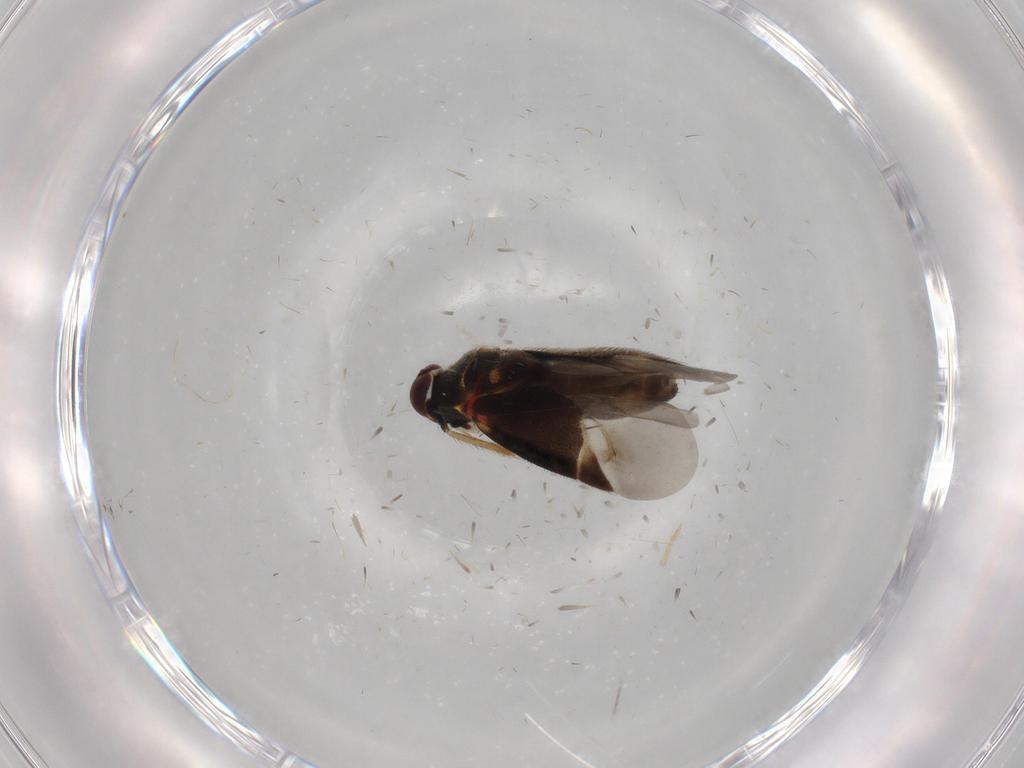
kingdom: Animalia
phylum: Arthropoda
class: Insecta
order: Hemiptera
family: Miridae
